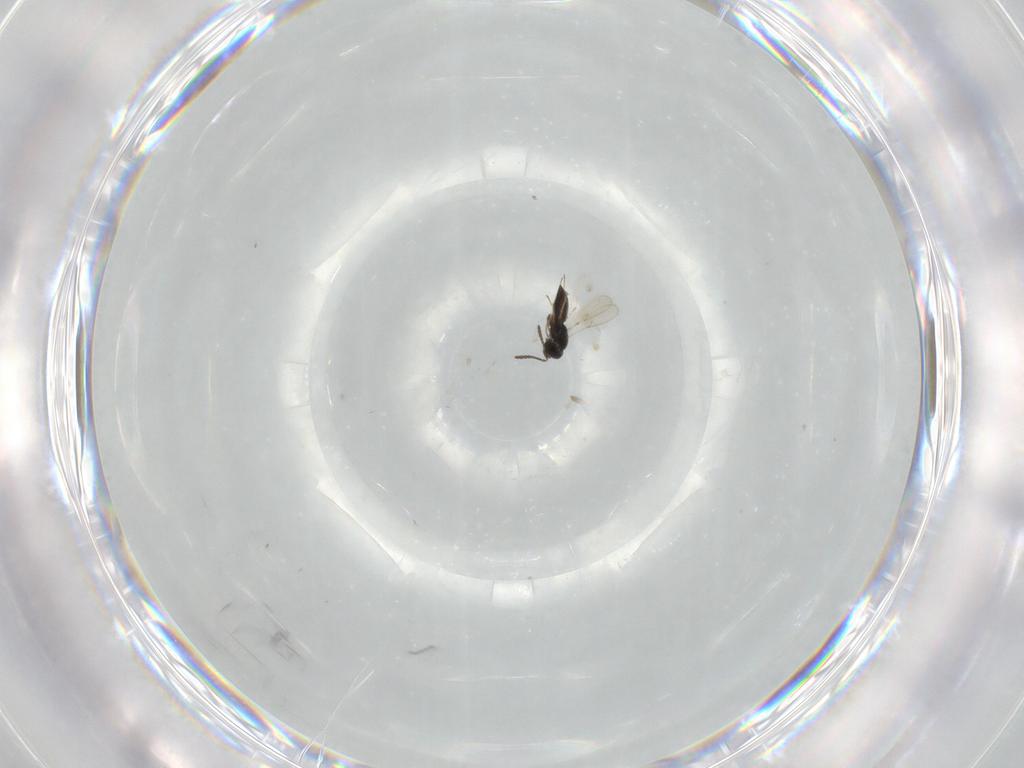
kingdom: Animalia
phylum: Arthropoda
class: Insecta
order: Hymenoptera
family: Scelionidae
